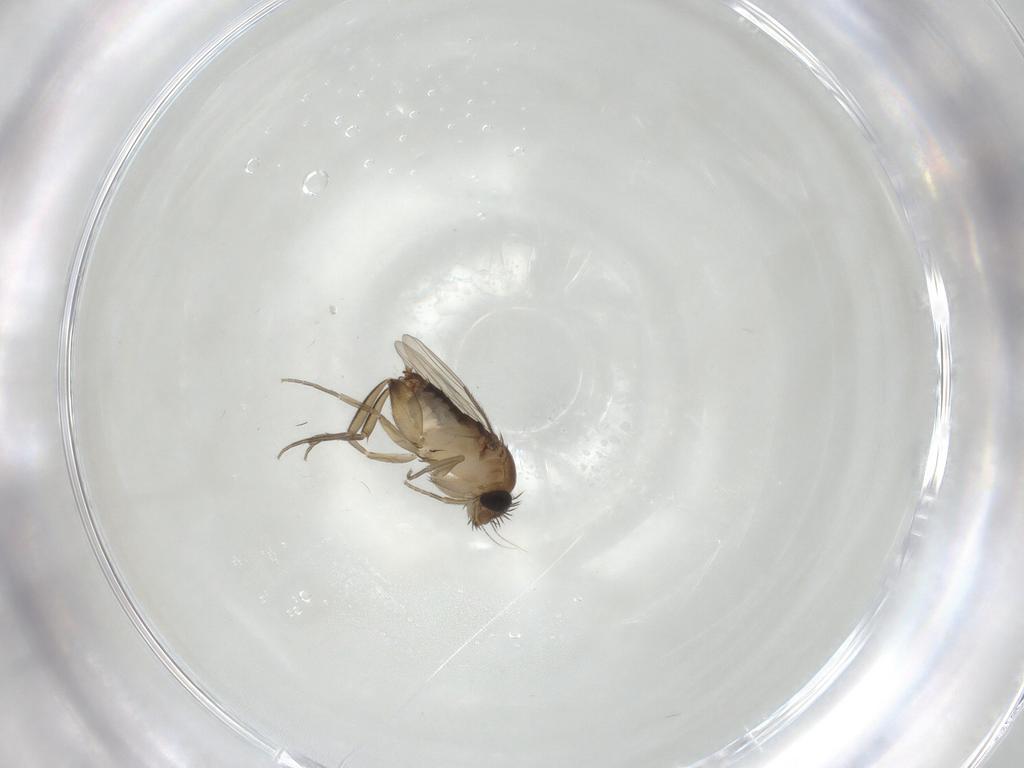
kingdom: Animalia
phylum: Arthropoda
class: Insecta
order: Diptera
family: Phoridae
